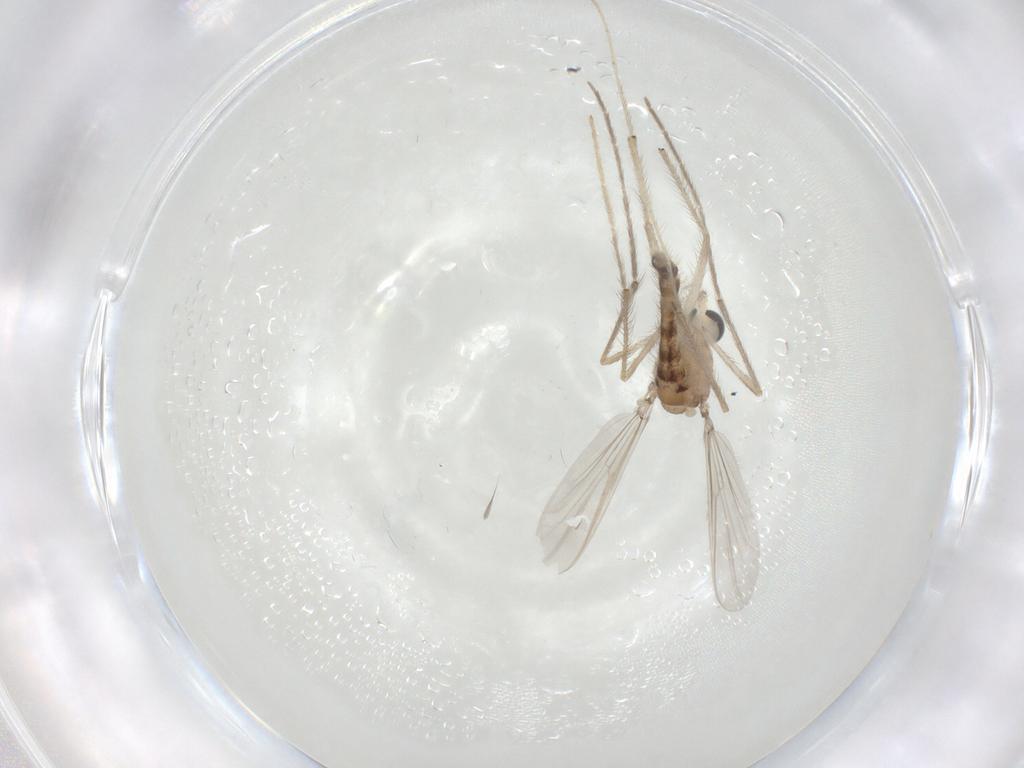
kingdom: Animalia
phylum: Arthropoda
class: Insecta
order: Diptera
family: Chironomidae
